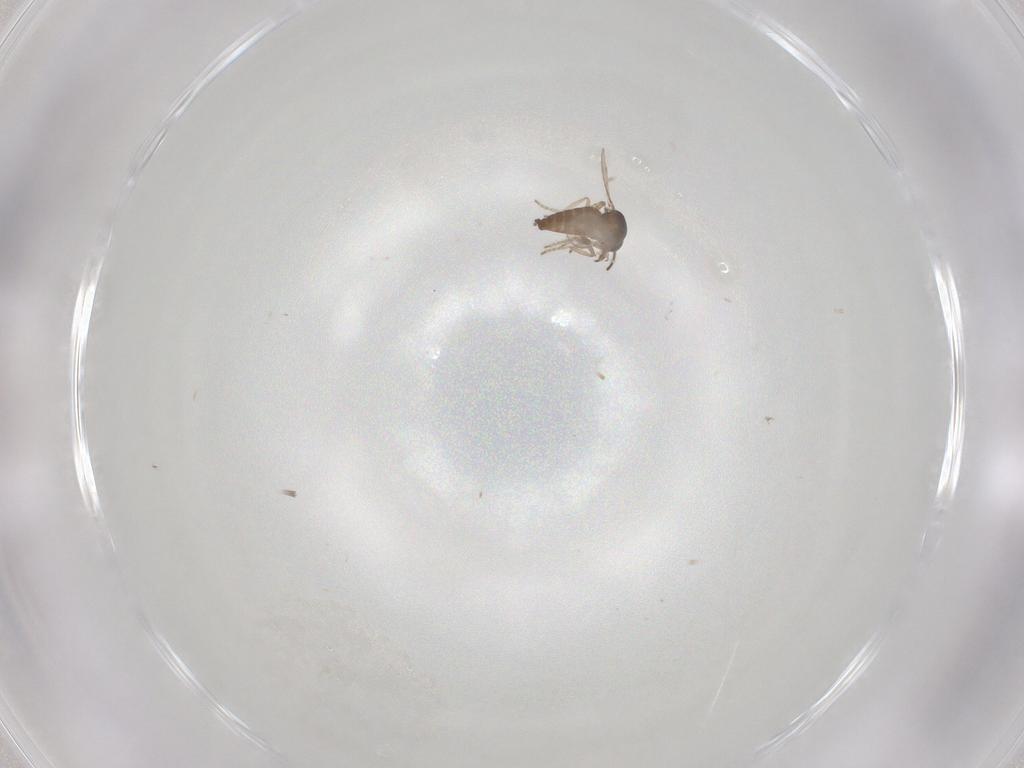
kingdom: Animalia
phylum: Arthropoda
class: Insecta
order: Diptera
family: Ceratopogonidae
